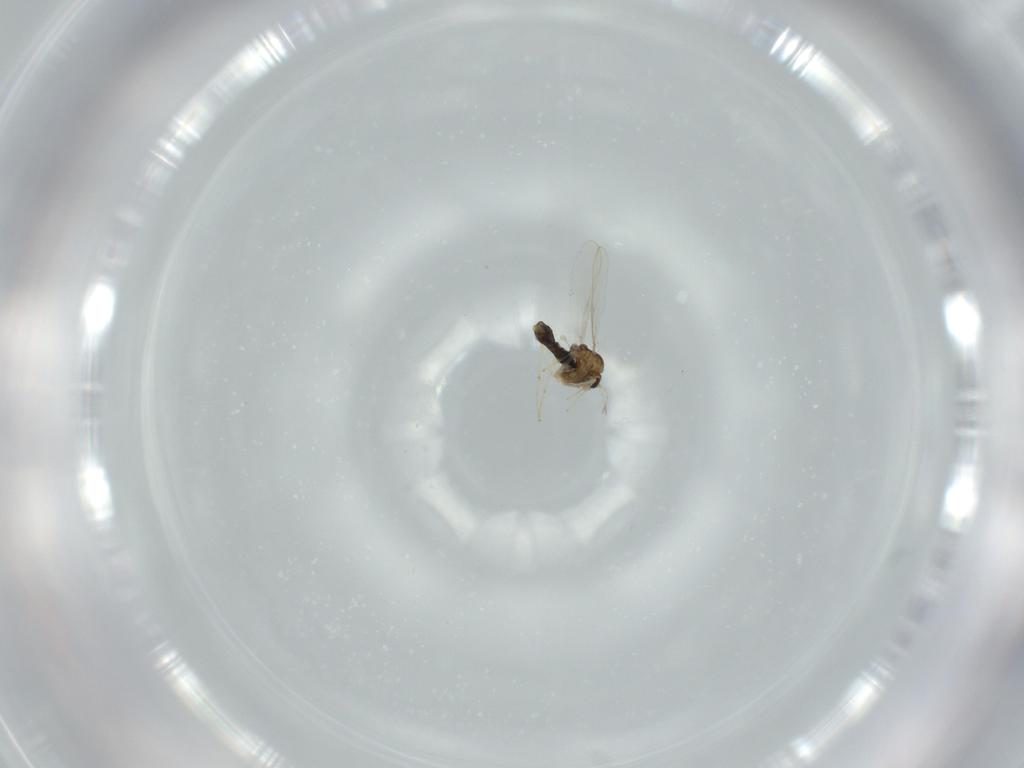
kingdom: Animalia
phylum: Arthropoda
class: Insecta
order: Diptera
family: Chironomidae
